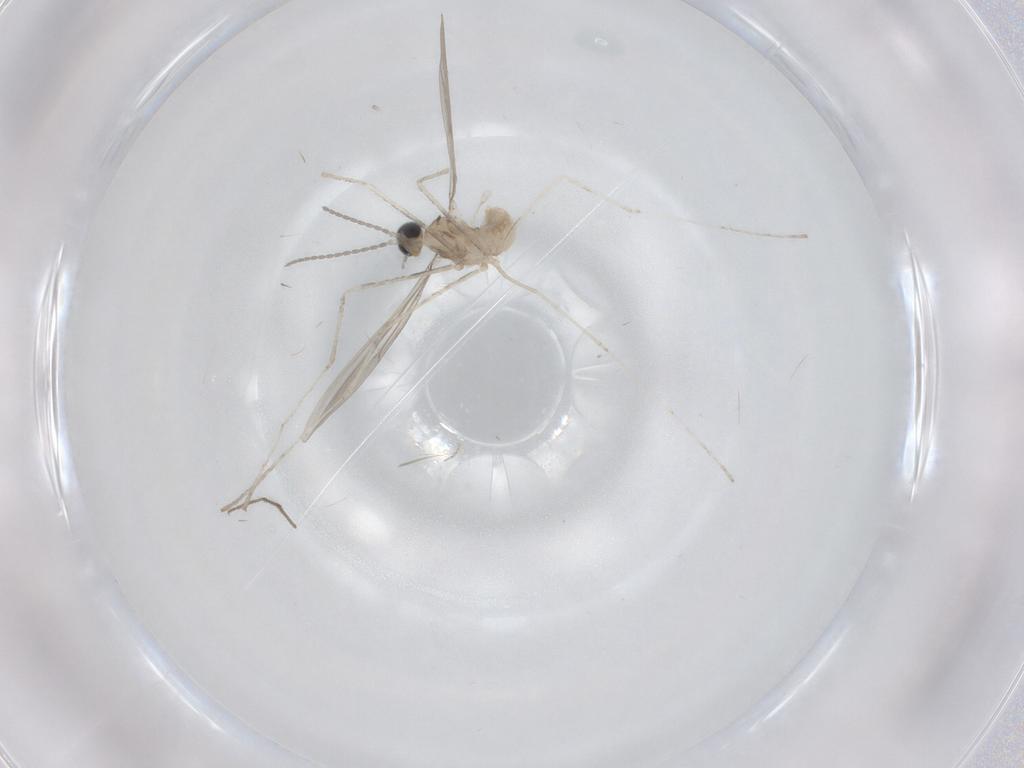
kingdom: Animalia
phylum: Arthropoda
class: Insecta
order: Diptera
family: Cecidomyiidae
